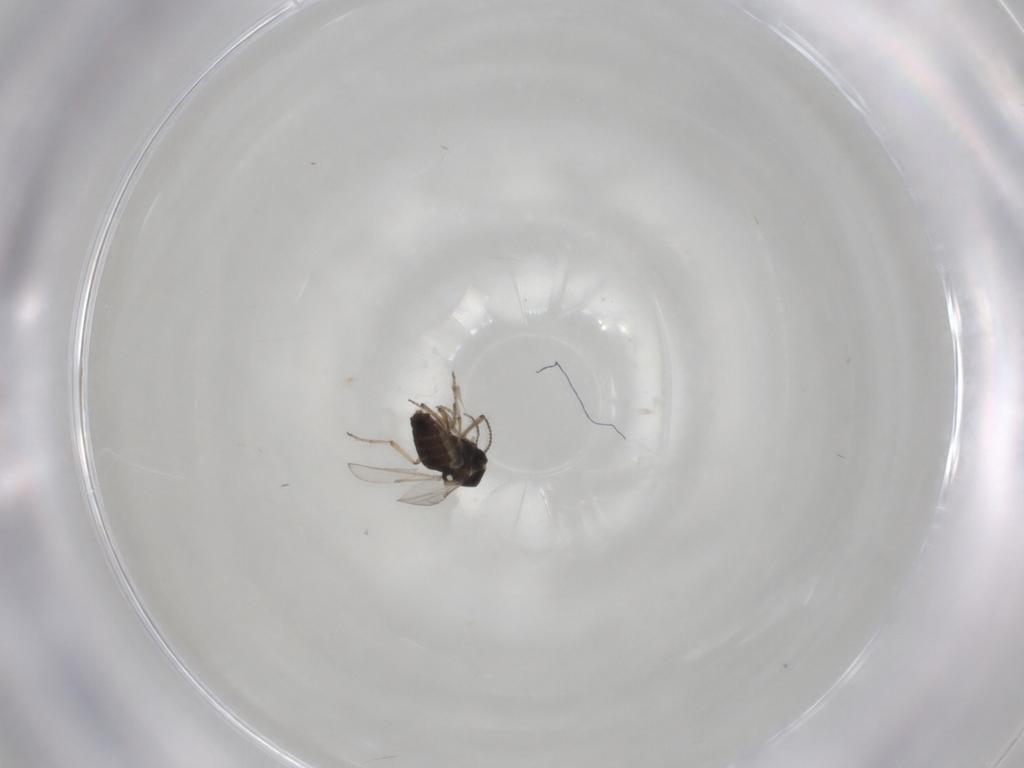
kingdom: Animalia
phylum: Arthropoda
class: Insecta
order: Diptera
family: Ceratopogonidae
